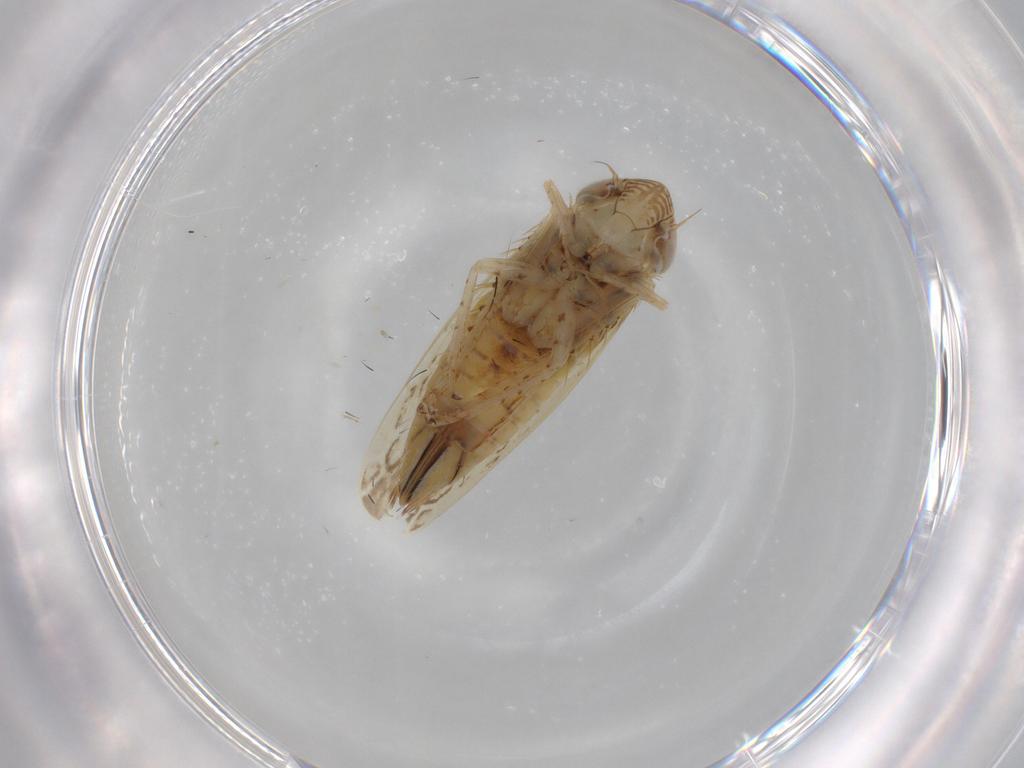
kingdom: Animalia
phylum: Arthropoda
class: Insecta
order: Hemiptera
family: Cicadellidae
